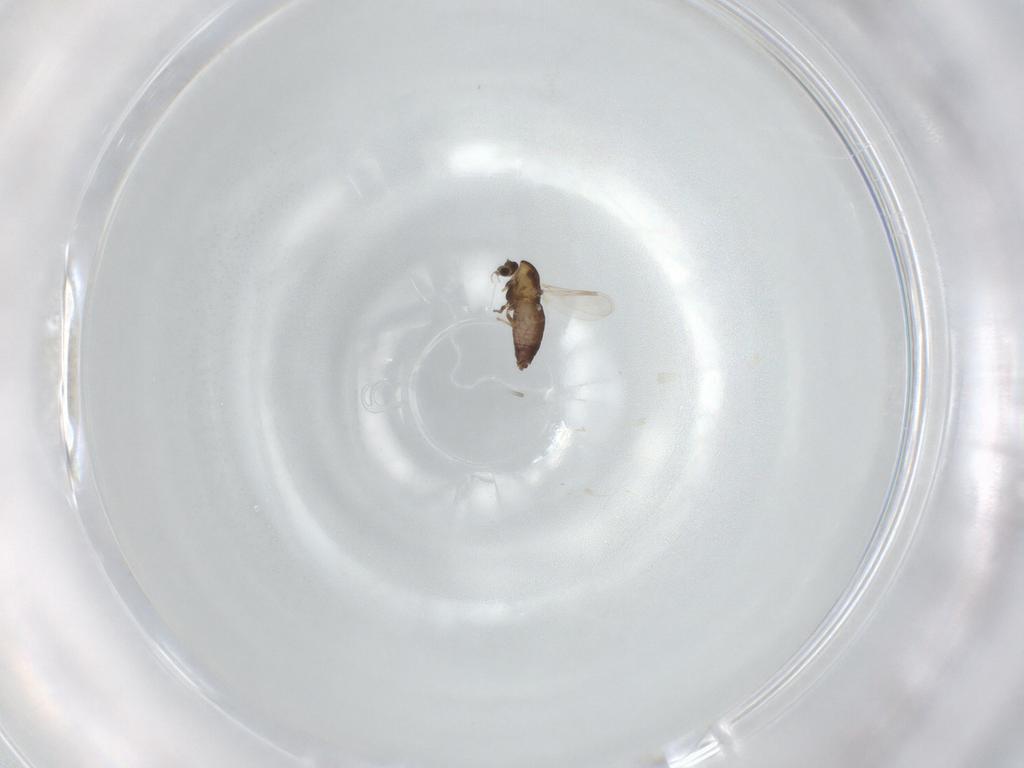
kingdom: Animalia
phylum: Arthropoda
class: Insecta
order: Diptera
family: Chironomidae
